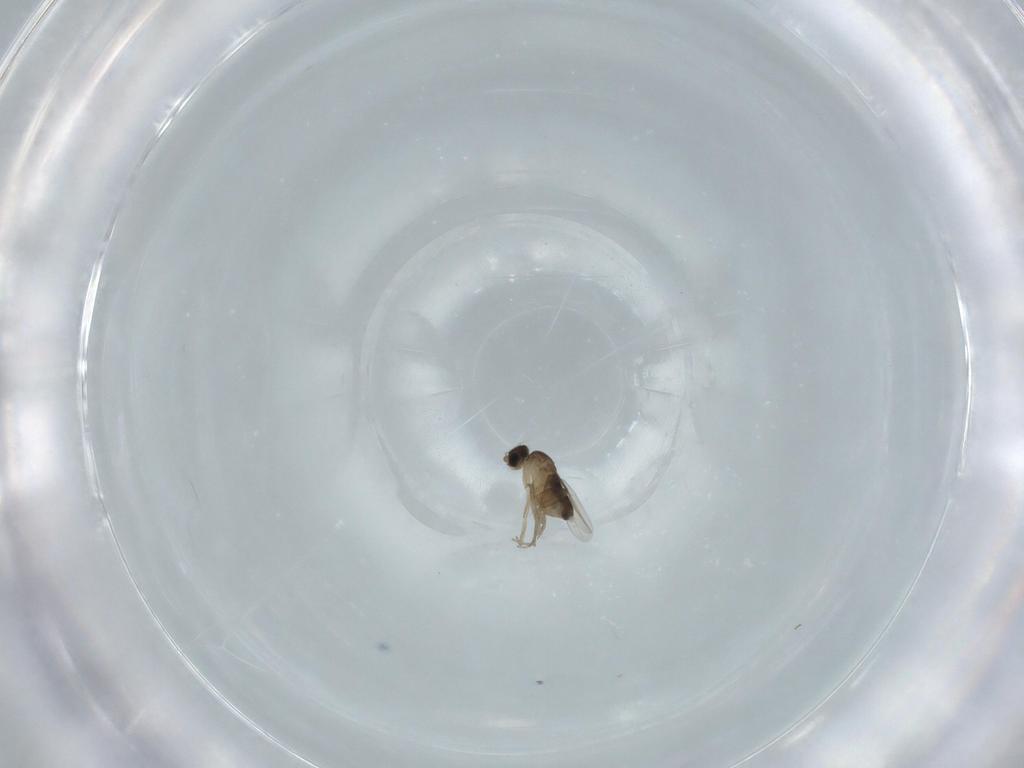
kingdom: Animalia
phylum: Arthropoda
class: Insecta
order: Diptera
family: Phoridae
